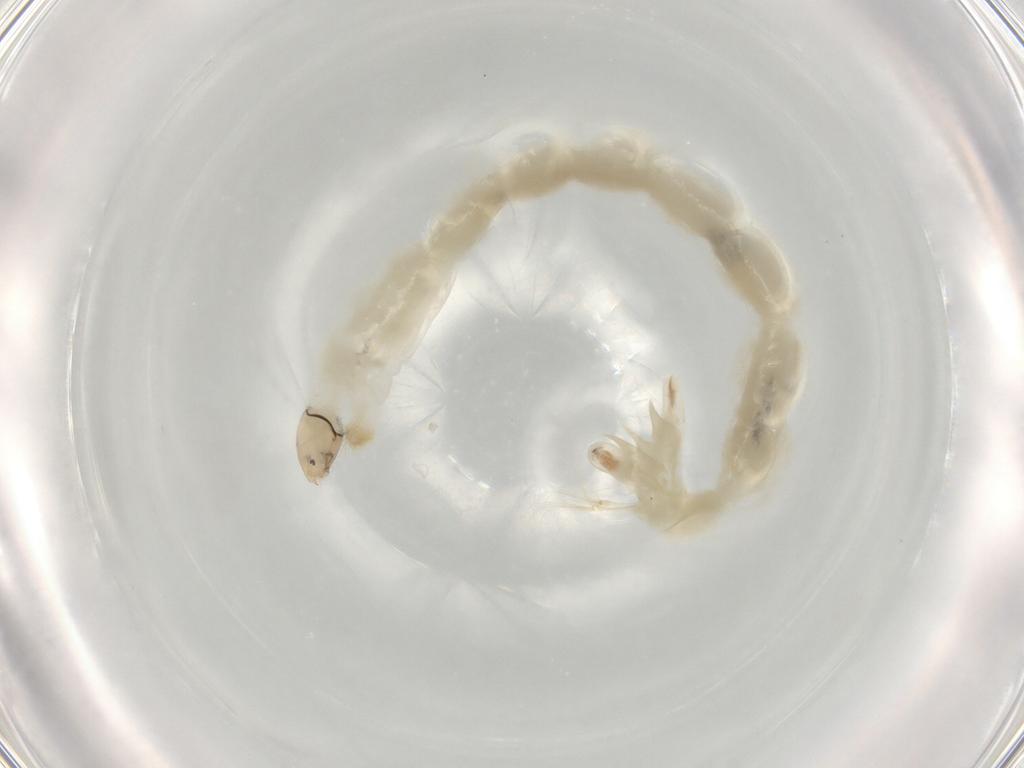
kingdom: Animalia
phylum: Arthropoda
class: Insecta
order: Diptera
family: Chironomidae
